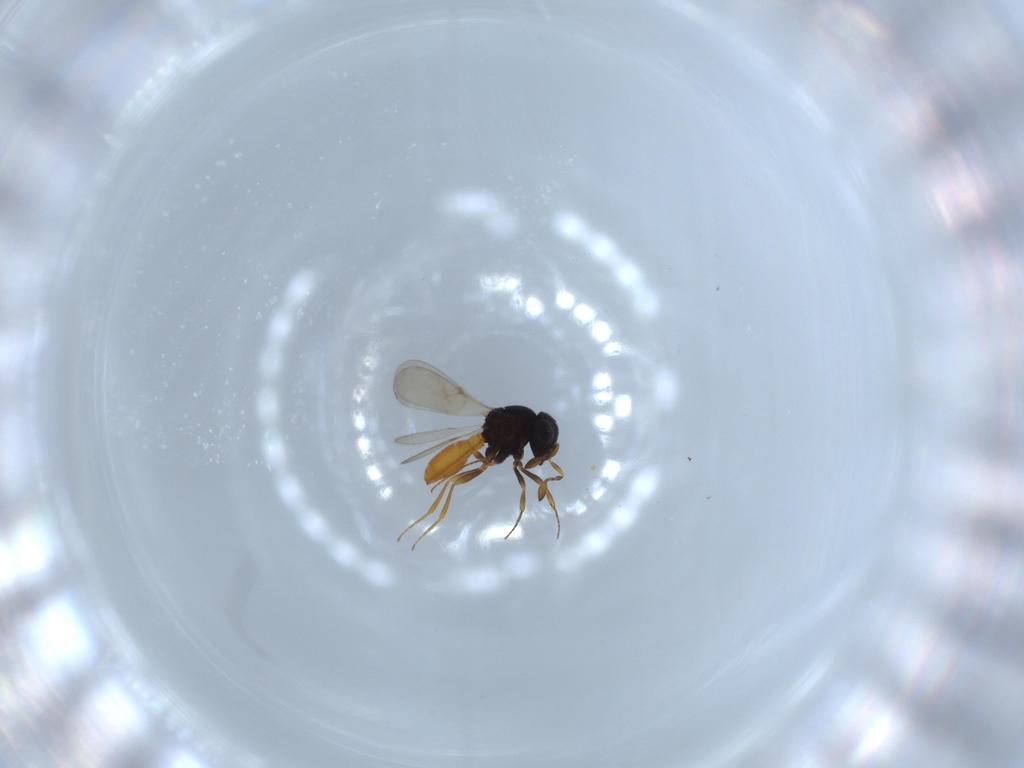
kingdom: Animalia
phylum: Arthropoda
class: Insecta
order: Hymenoptera
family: Scelionidae
